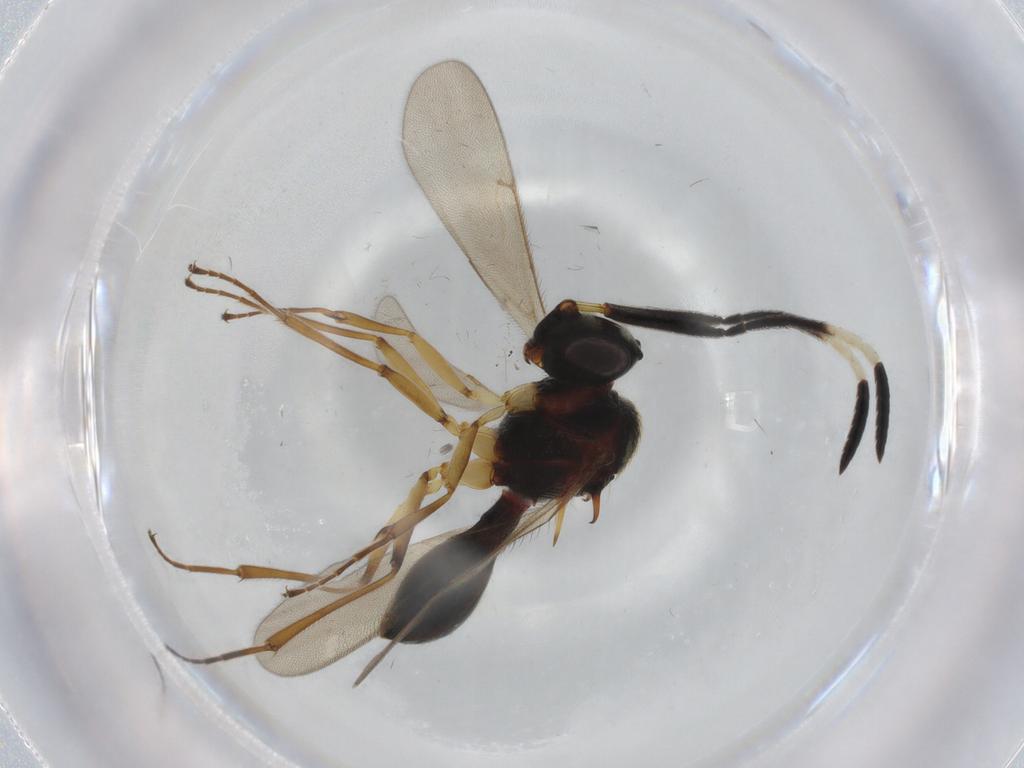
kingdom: Animalia
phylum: Arthropoda
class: Insecta
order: Hymenoptera
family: Scelionidae
